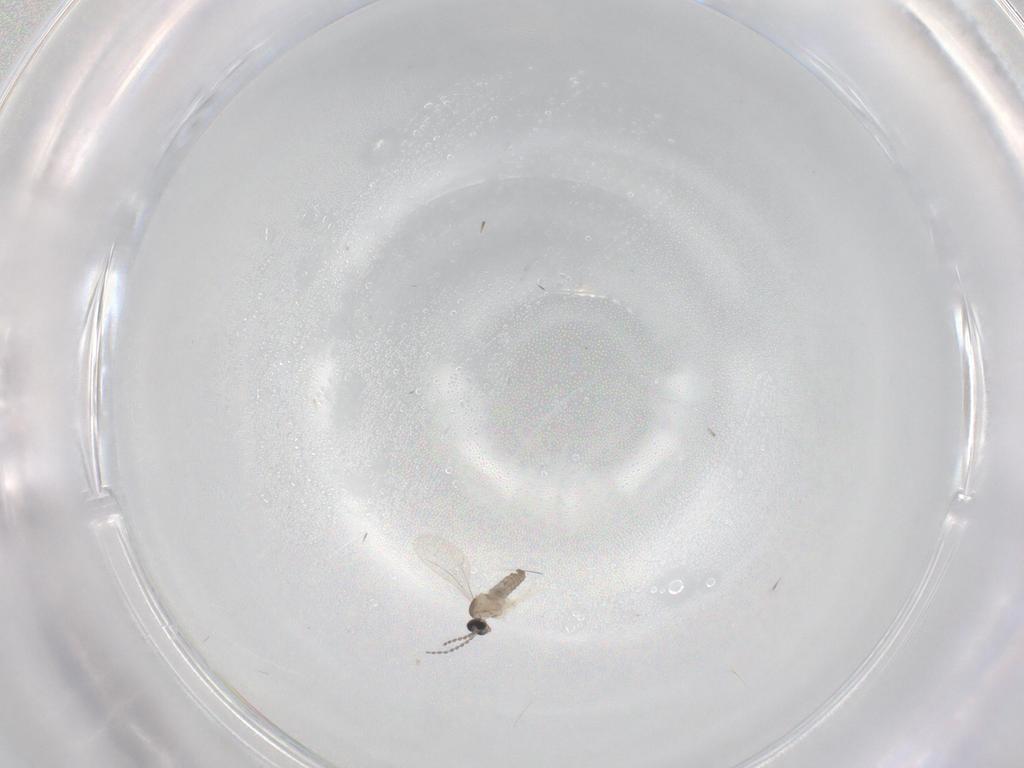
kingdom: Animalia
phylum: Arthropoda
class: Insecta
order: Diptera
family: Cecidomyiidae
